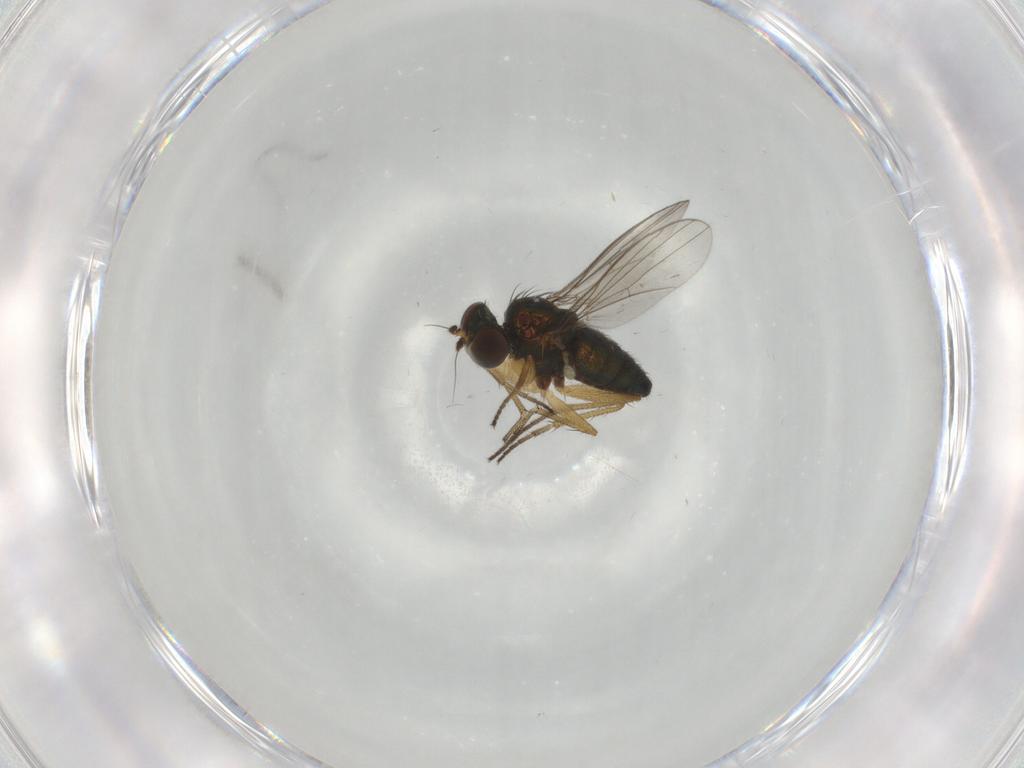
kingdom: Animalia
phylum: Arthropoda
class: Insecta
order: Diptera
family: Dolichopodidae
